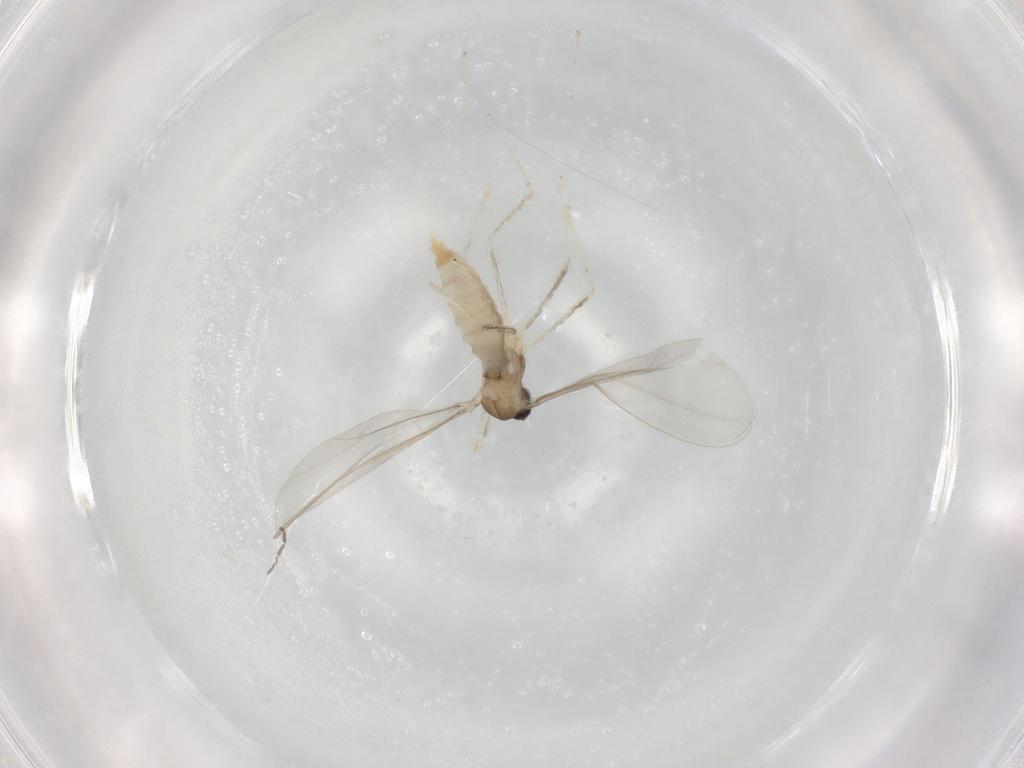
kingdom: Animalia
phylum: Arthropoda
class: Insecta
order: Diptera
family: Cecidomyiidae
